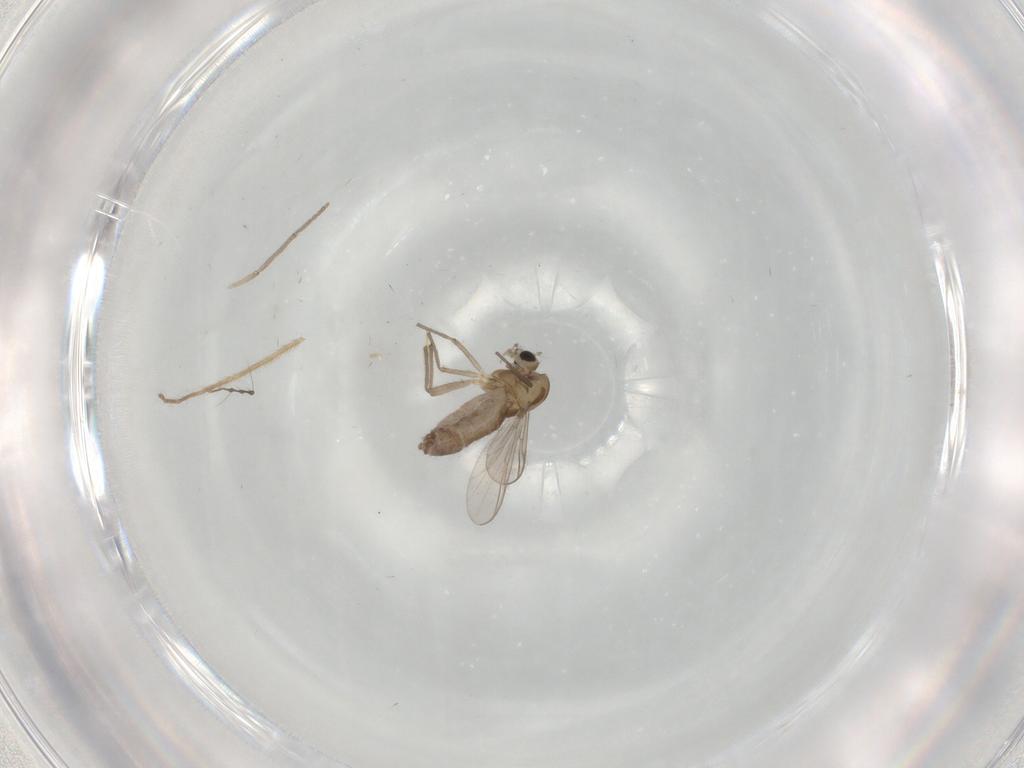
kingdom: Animalia
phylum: Arthropoda
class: Insecta
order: Diptera
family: Chironomidae
